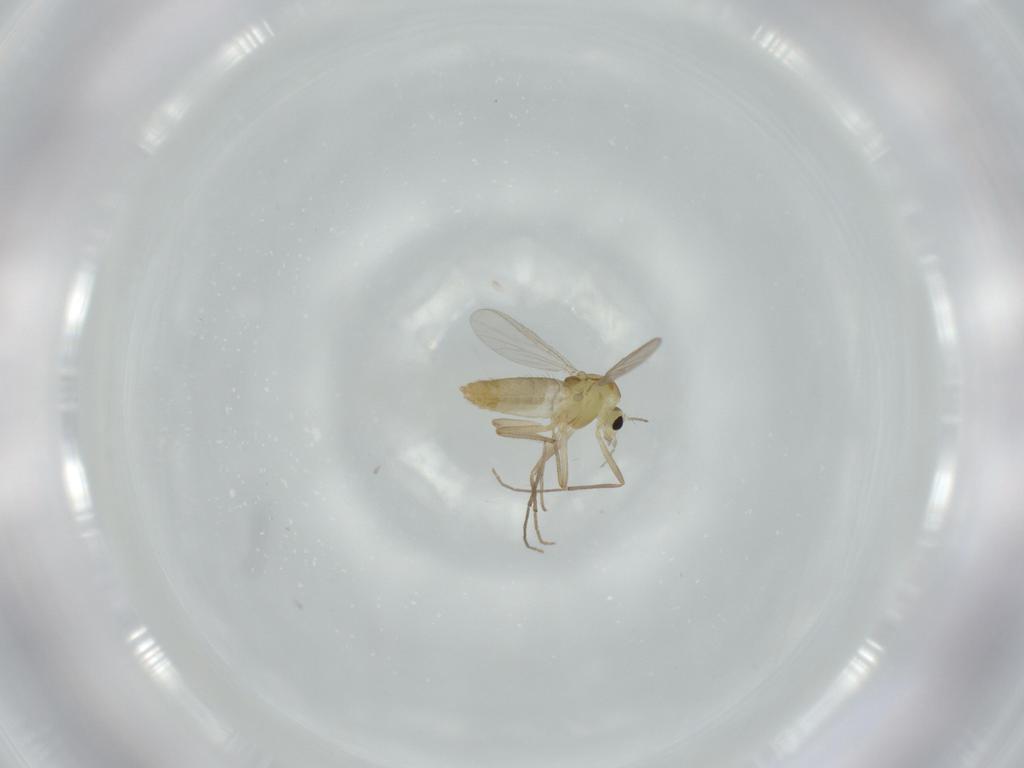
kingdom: Animalia
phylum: Arthropoda
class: Insecta
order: Diptera
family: Chironomidae
